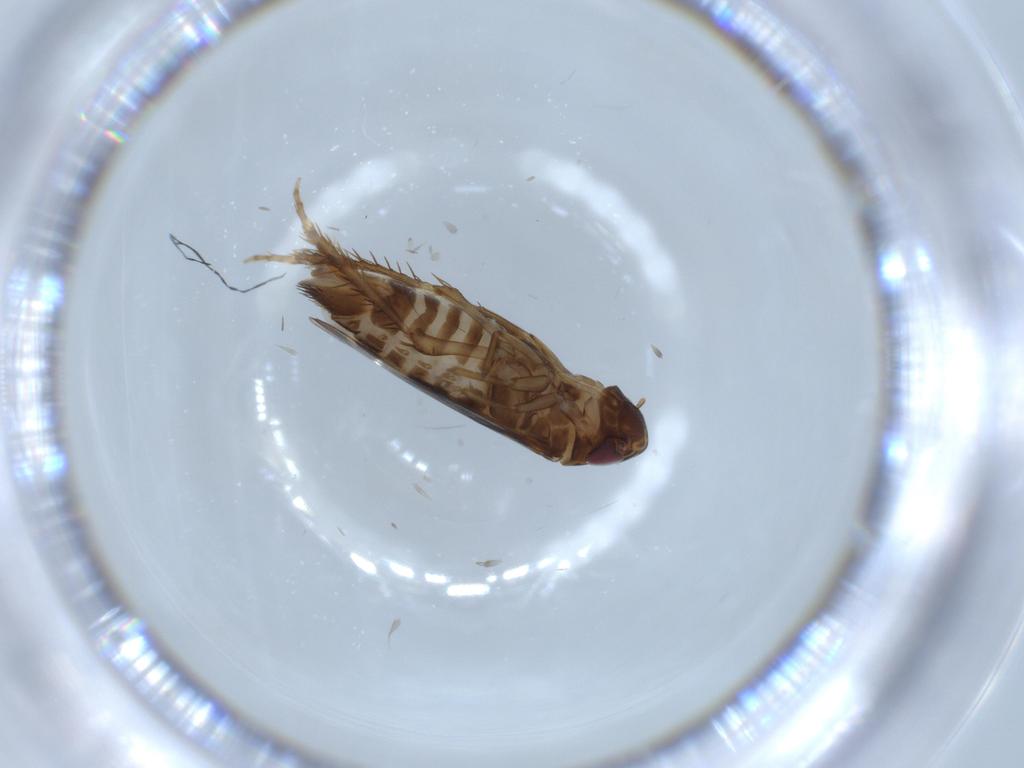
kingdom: Animalia
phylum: Arthropoda
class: Insecta
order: Hemiptera
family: Cicadellidae
